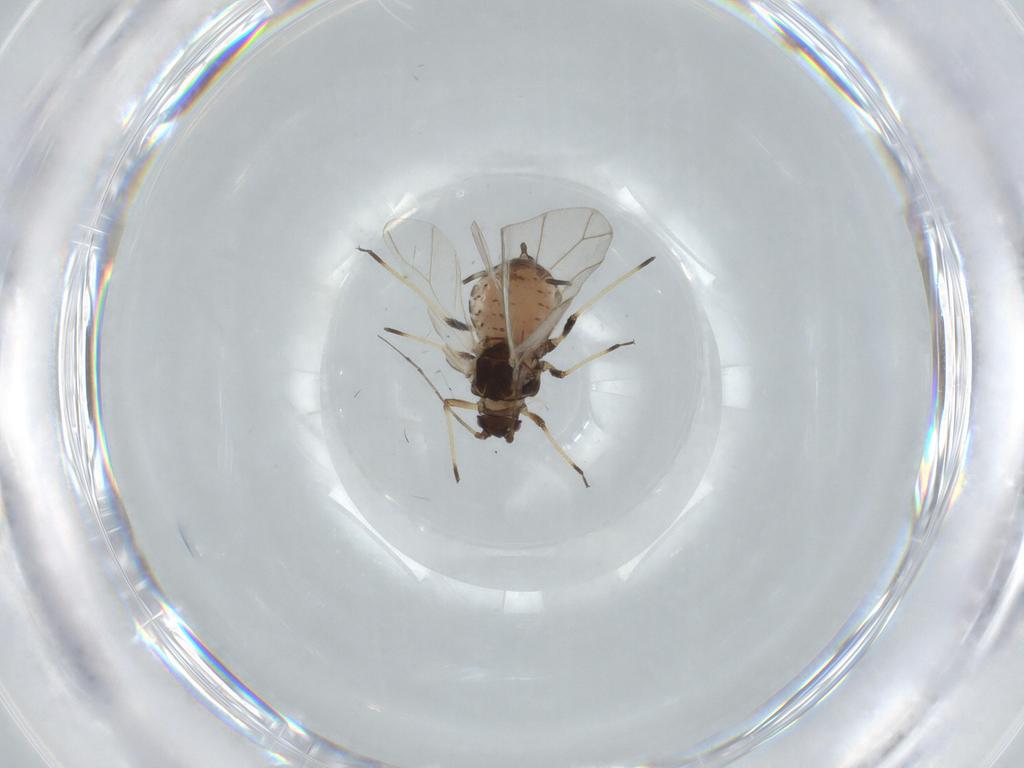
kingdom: Animalia
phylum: Arthropoda
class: Insecta
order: Hemiptera
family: Aphididae
